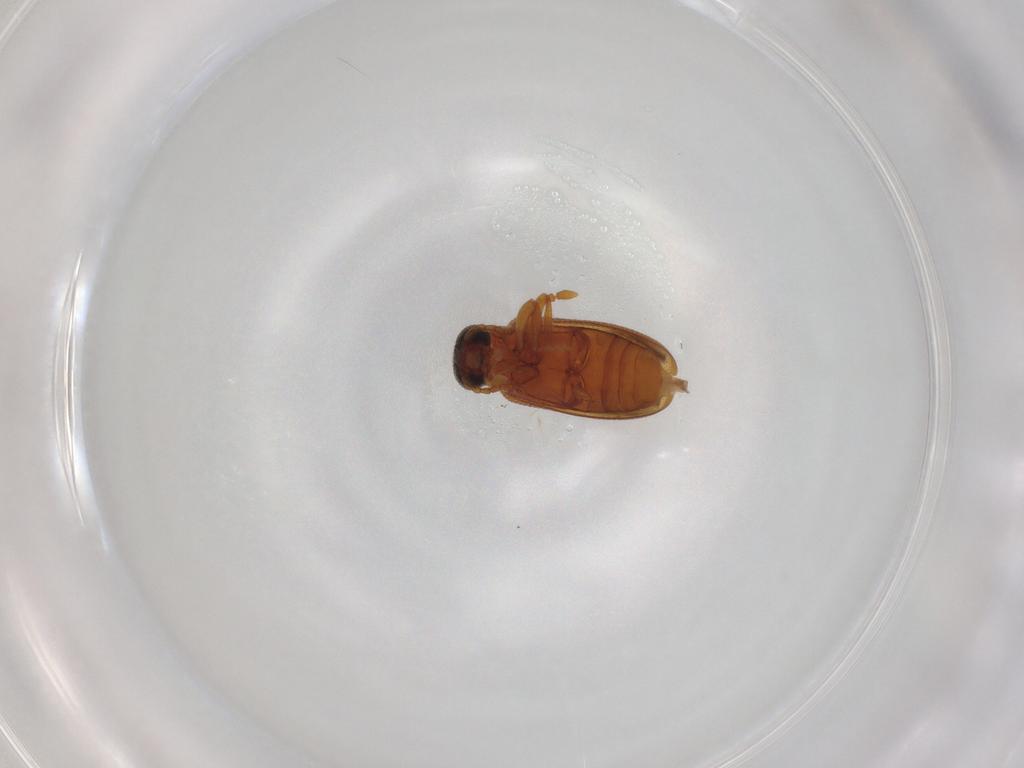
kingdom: Animalia
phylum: Arthropoda
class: Insecta
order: Coleoptera
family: Aderidae
